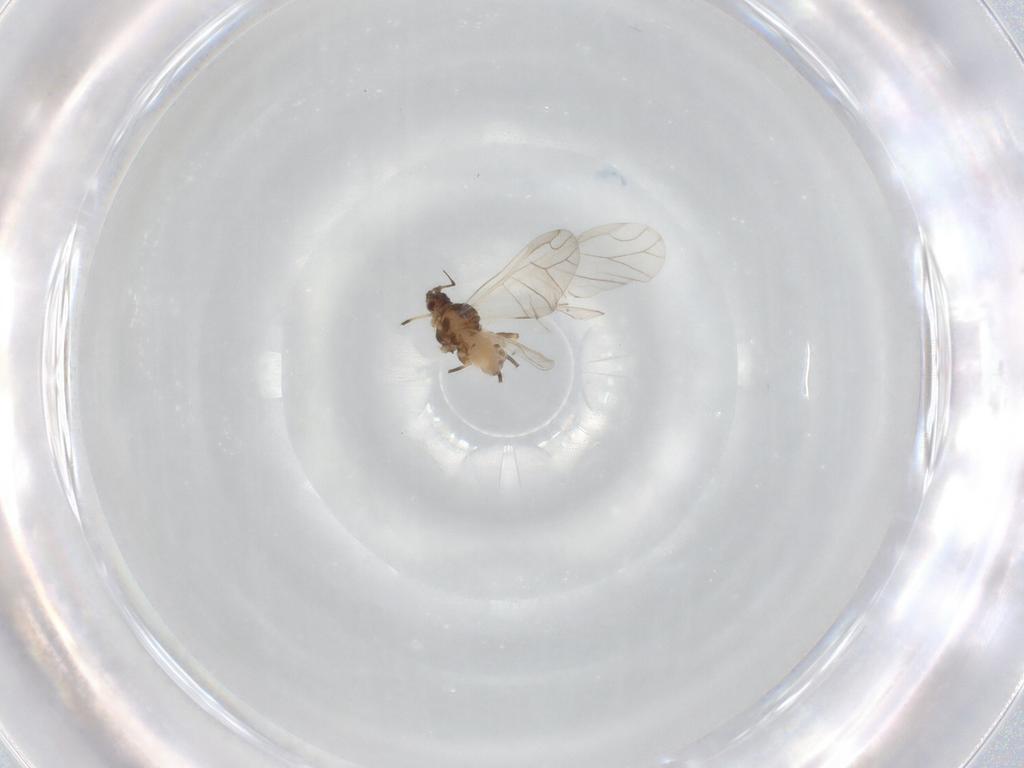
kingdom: Animalia
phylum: Arthropoda
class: Insecta
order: Hemiptera
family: Aphididae
